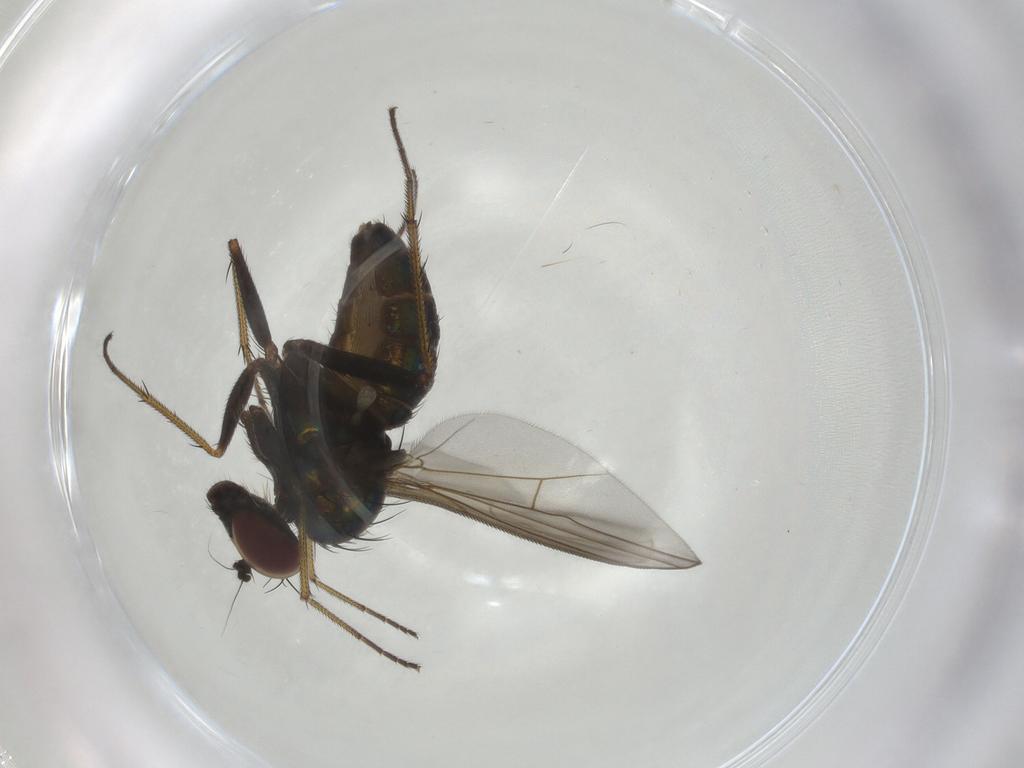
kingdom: Animalia
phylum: Arthropoda
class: Insecta
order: Diptera
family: Dolichopodidae
